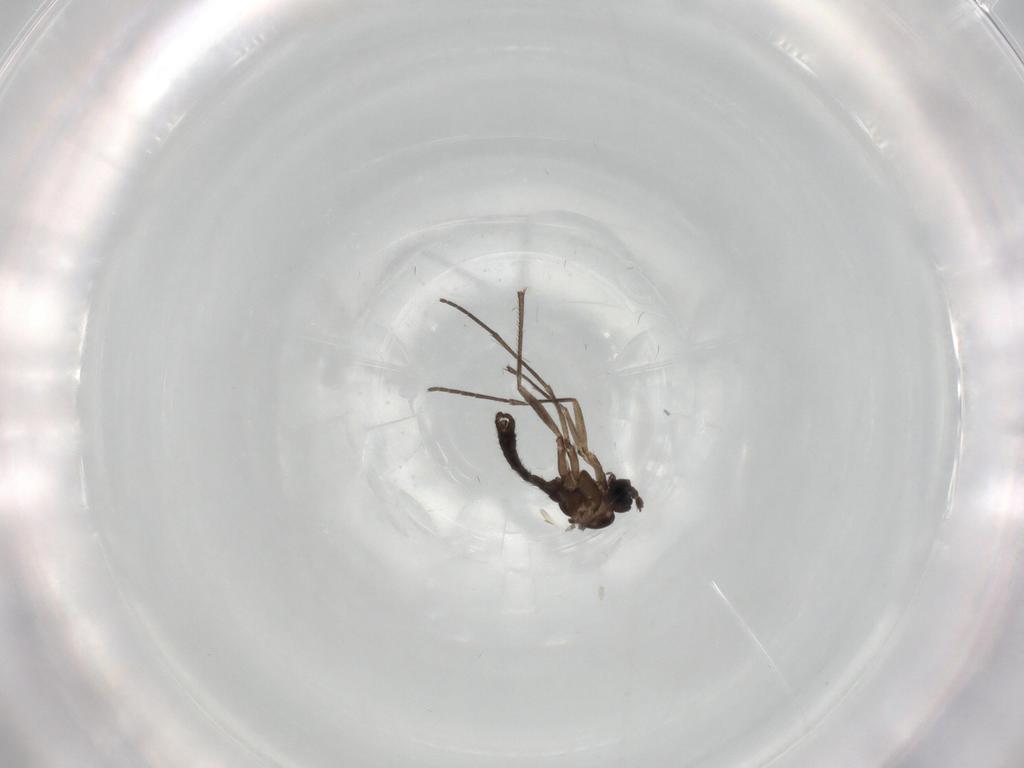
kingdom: Animalia
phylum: Arthropoda
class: Insecta
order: Diptera
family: Sciaridae
